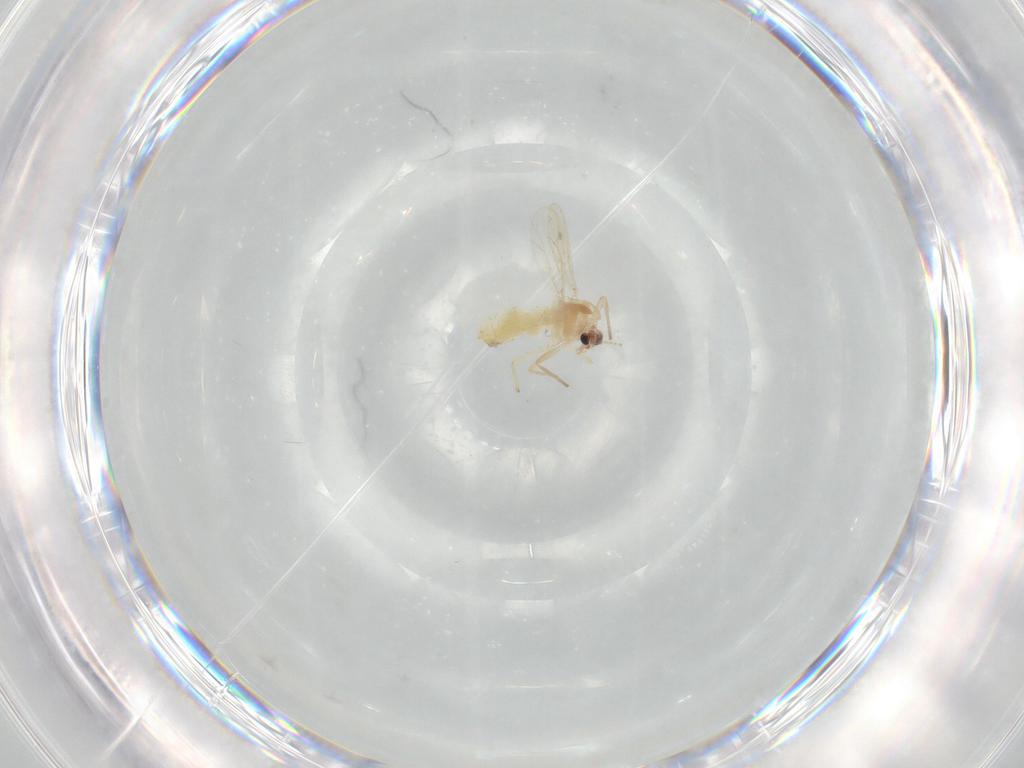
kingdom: Animalia
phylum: Arthropoda
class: Insecta
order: Diptera
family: Chironomidae
